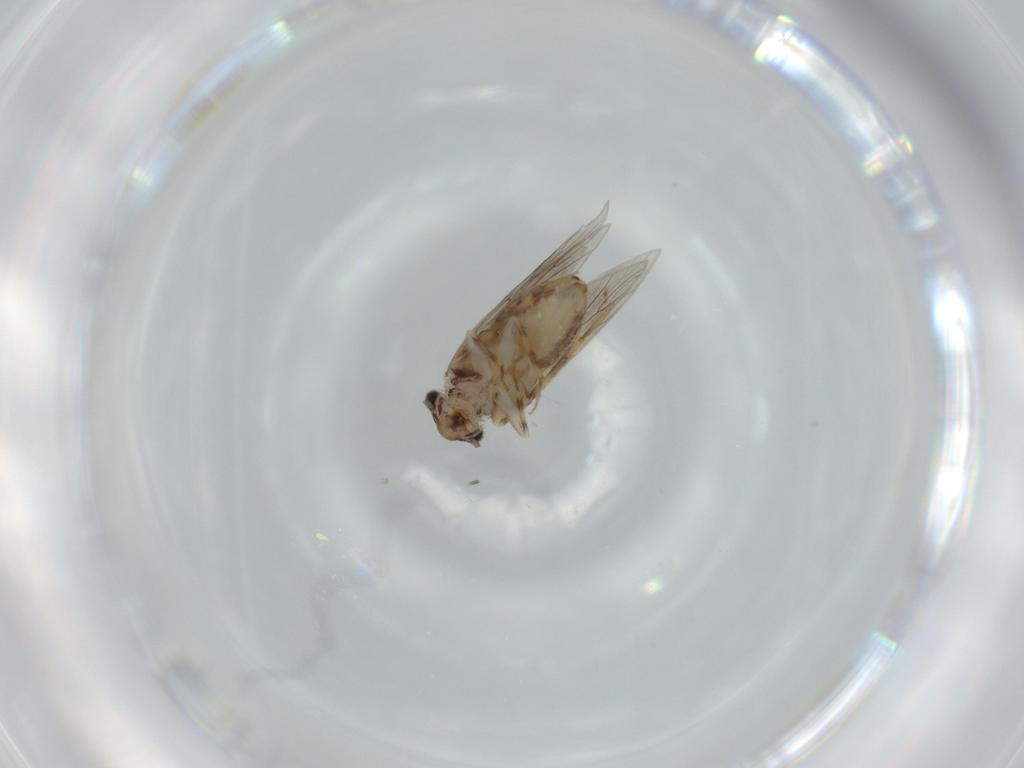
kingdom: Animalia
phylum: Arthropoda
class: Insecta
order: Psocodea
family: Lepidopsocidae
